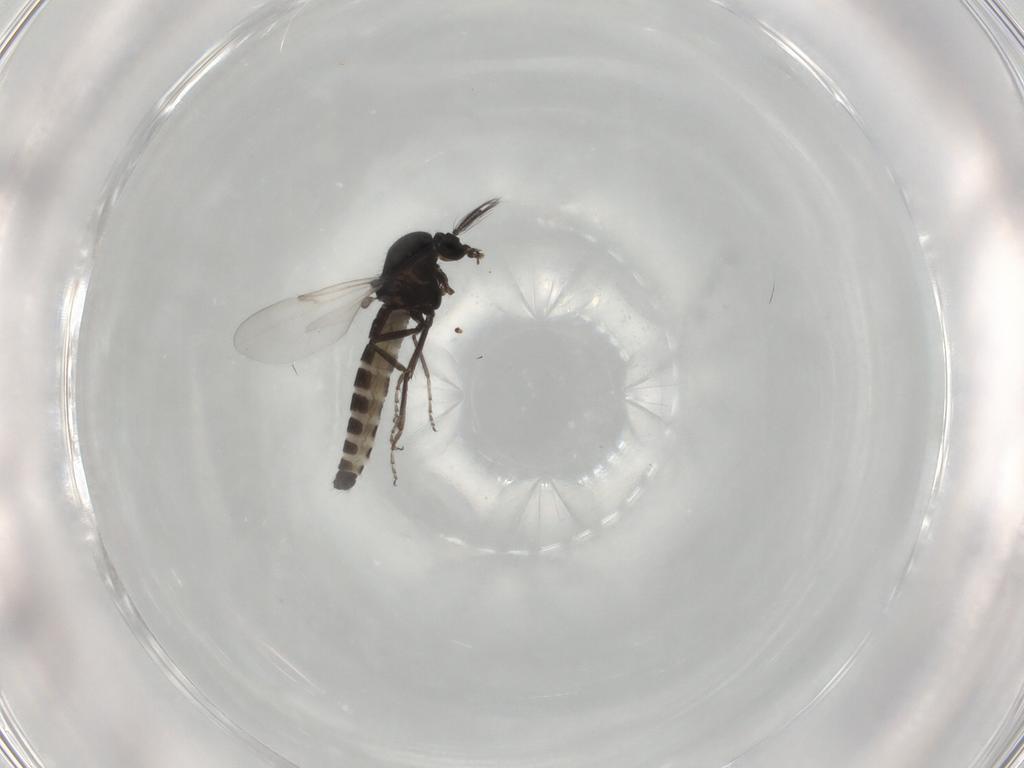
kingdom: Animalia
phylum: Arthropoda
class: Insecta
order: Diptera
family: Ceratopogonidae
